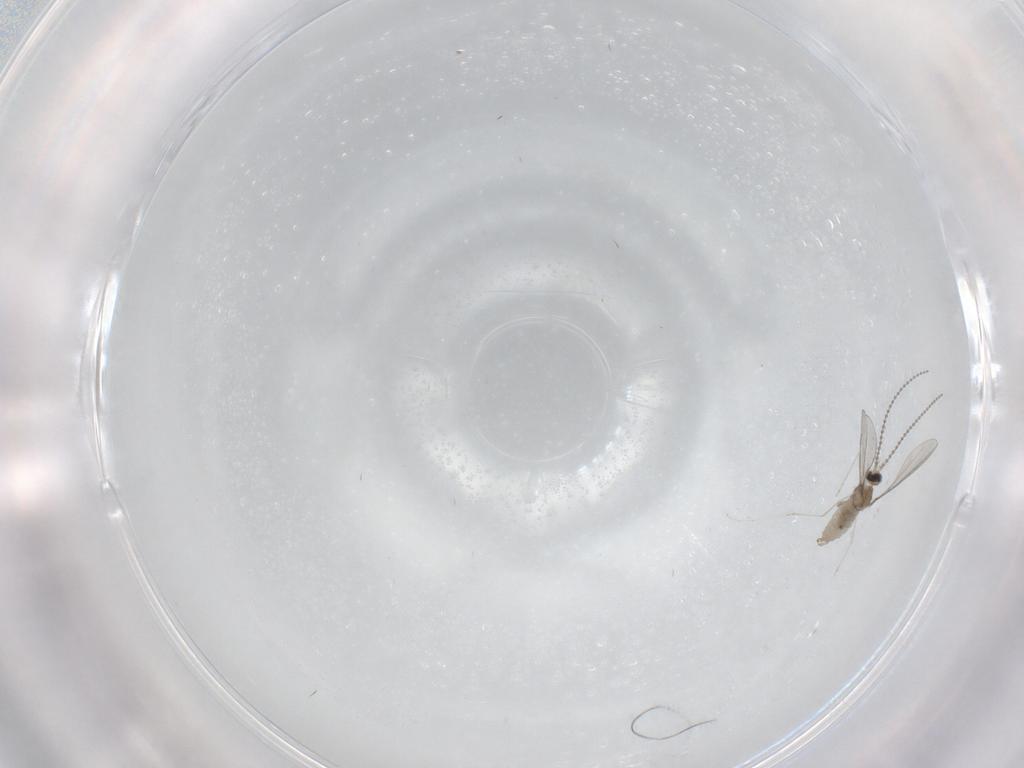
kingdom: Animalia
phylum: Arthropoda
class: Insecta
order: Diptera
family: Cecidomyiidae
